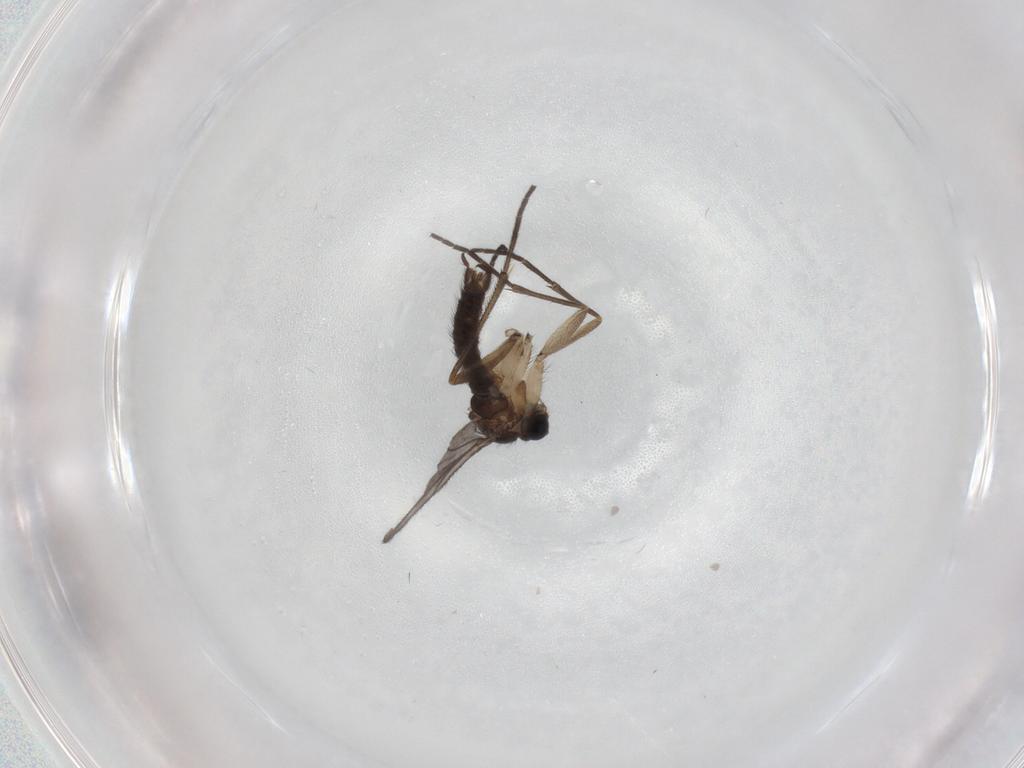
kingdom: Animalia
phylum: Arthropoda
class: Insecta
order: Diptera
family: Sciaridae
